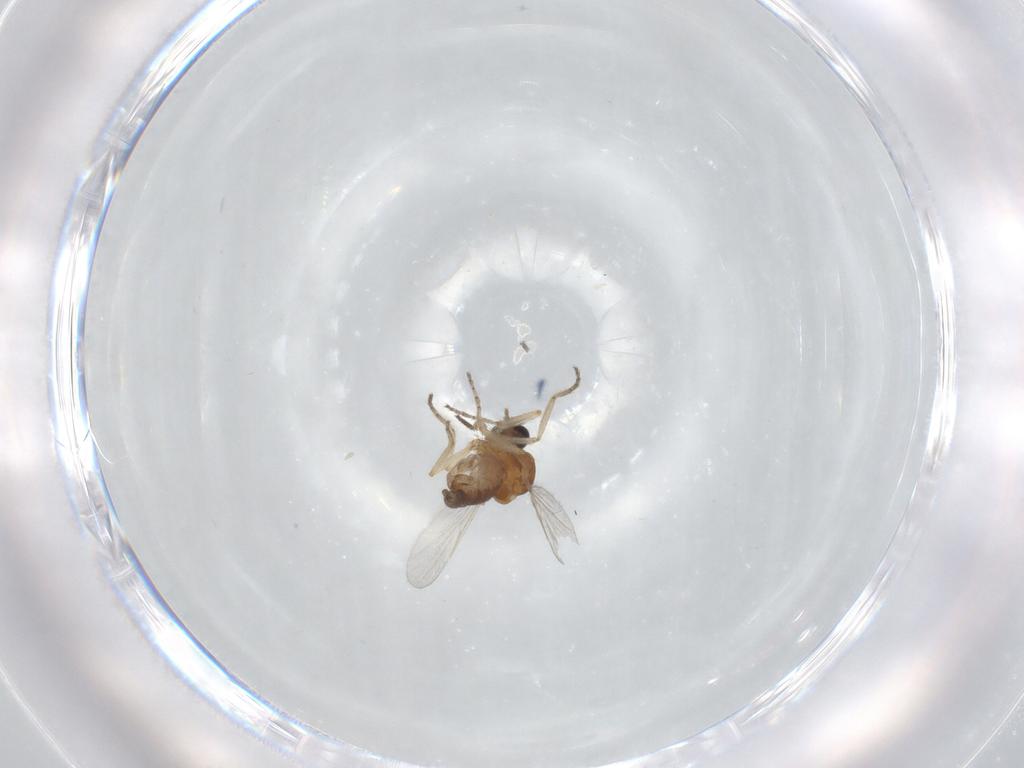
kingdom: Animalia
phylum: Arthropoda
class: Insecta
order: Diptera
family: Ceratopogonidae
